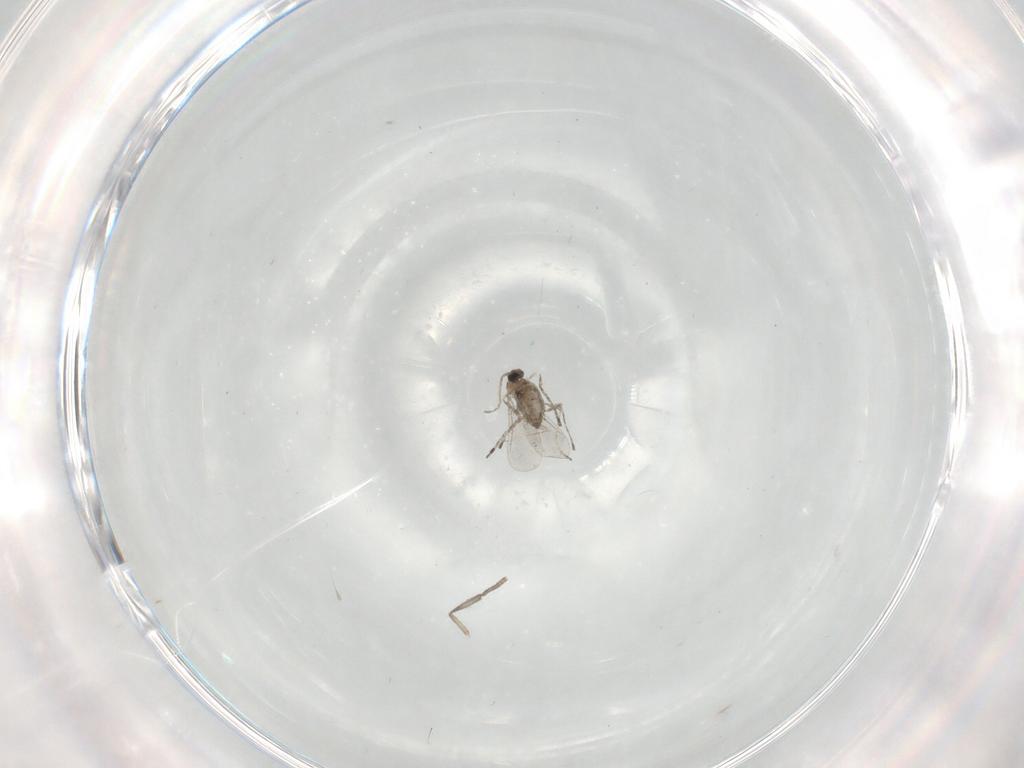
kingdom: Animalia
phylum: Arthropoda
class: Insecta
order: Diptera
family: Cecidomyiidae
